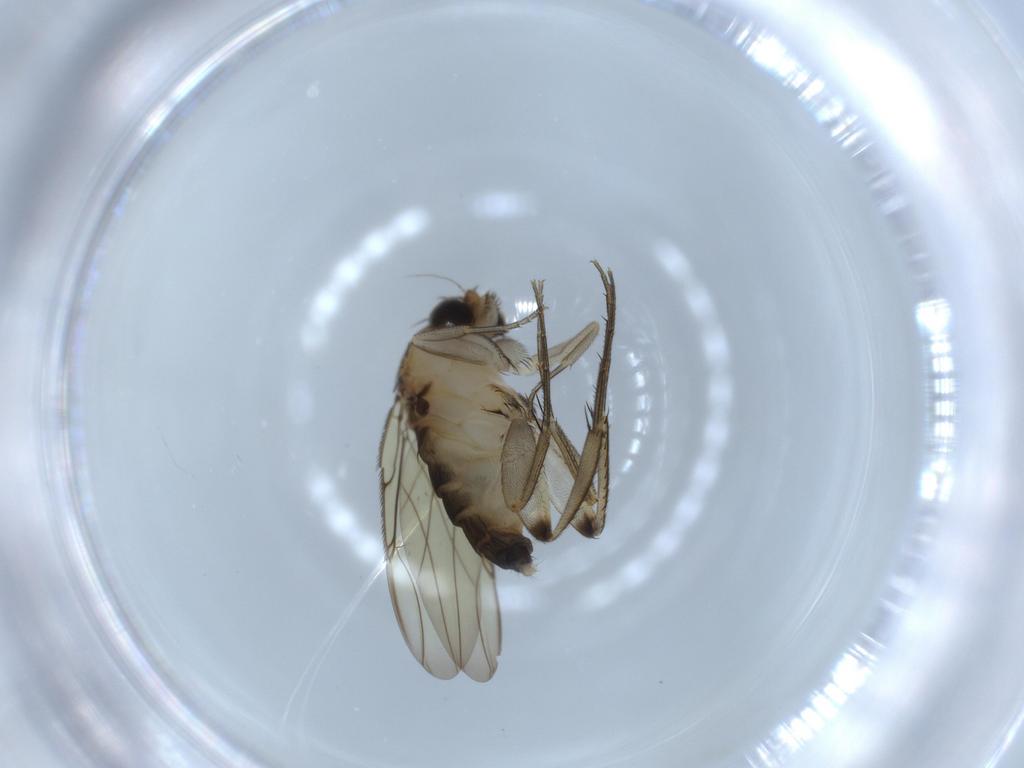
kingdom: Animalia
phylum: Arthropoda
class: Insecta
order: Diptera
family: Phoridae
